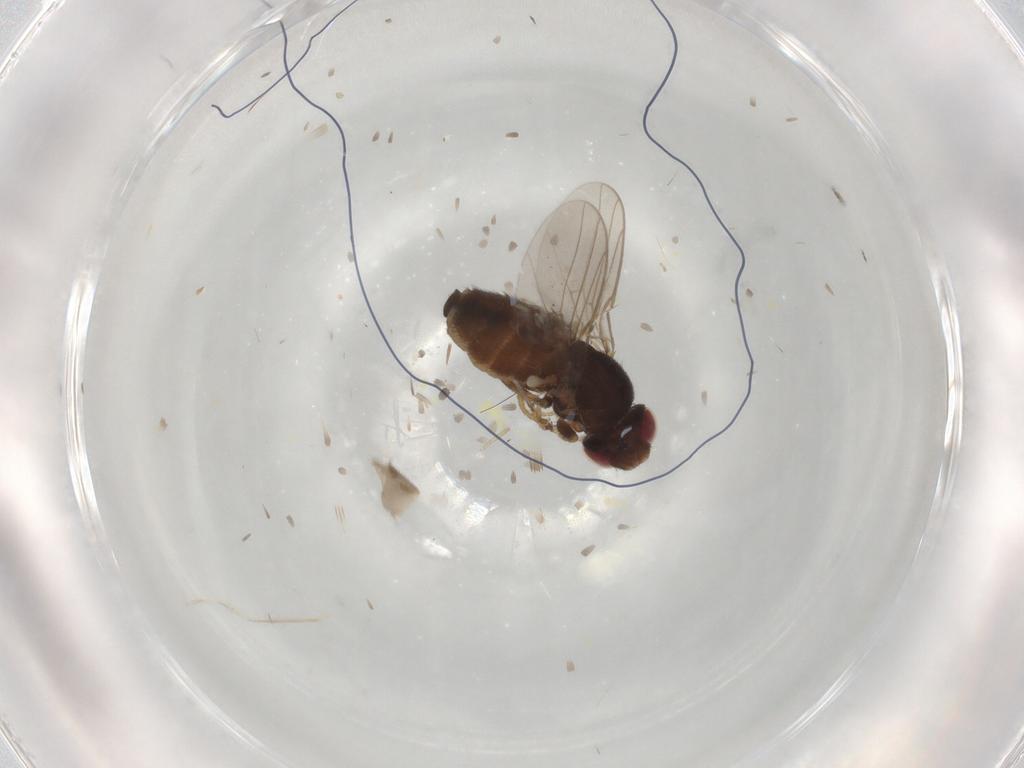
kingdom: Animalia
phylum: Arthropoda
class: Insecta
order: Diptera
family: Chloropidae
